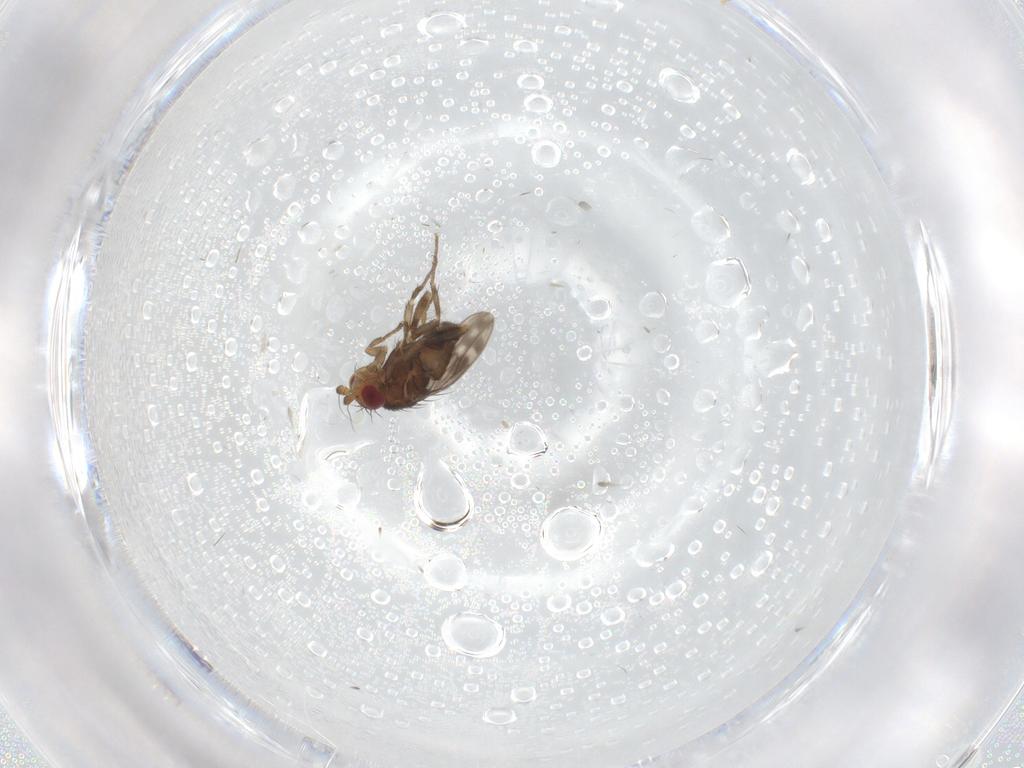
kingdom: Animalia
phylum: Arthropoda
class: Insecta
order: Diptera
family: Sphaeroceridae
